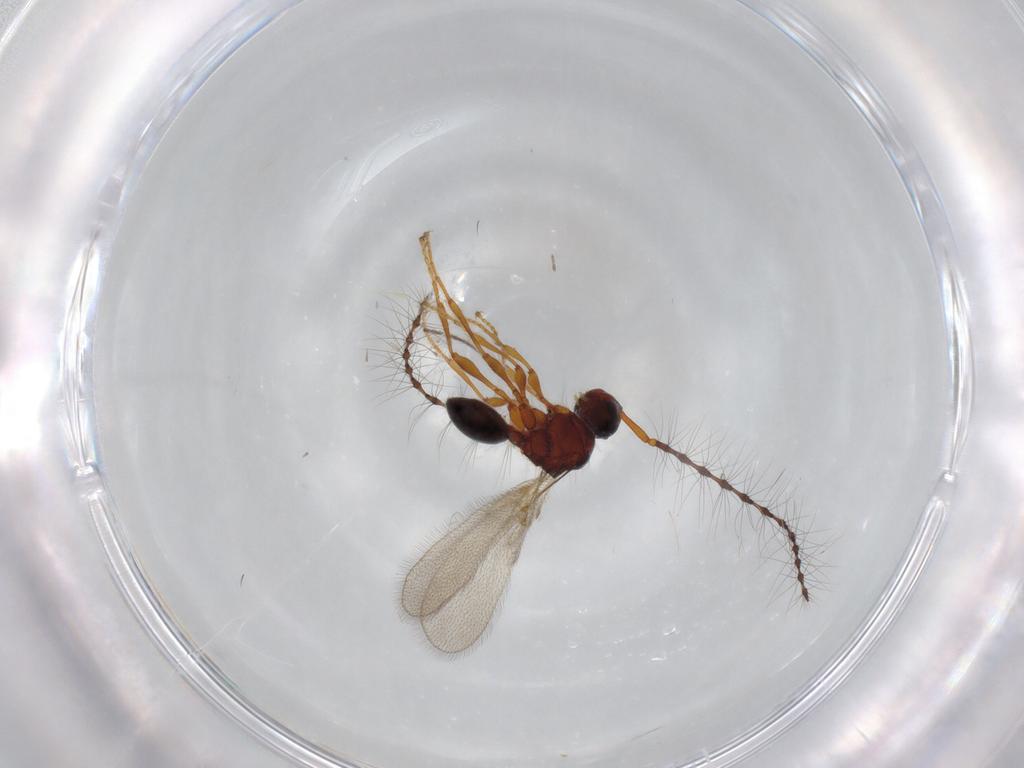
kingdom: Animalia
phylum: Arthropoda
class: Insecta
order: Hymenoptera
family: Diapriidae
